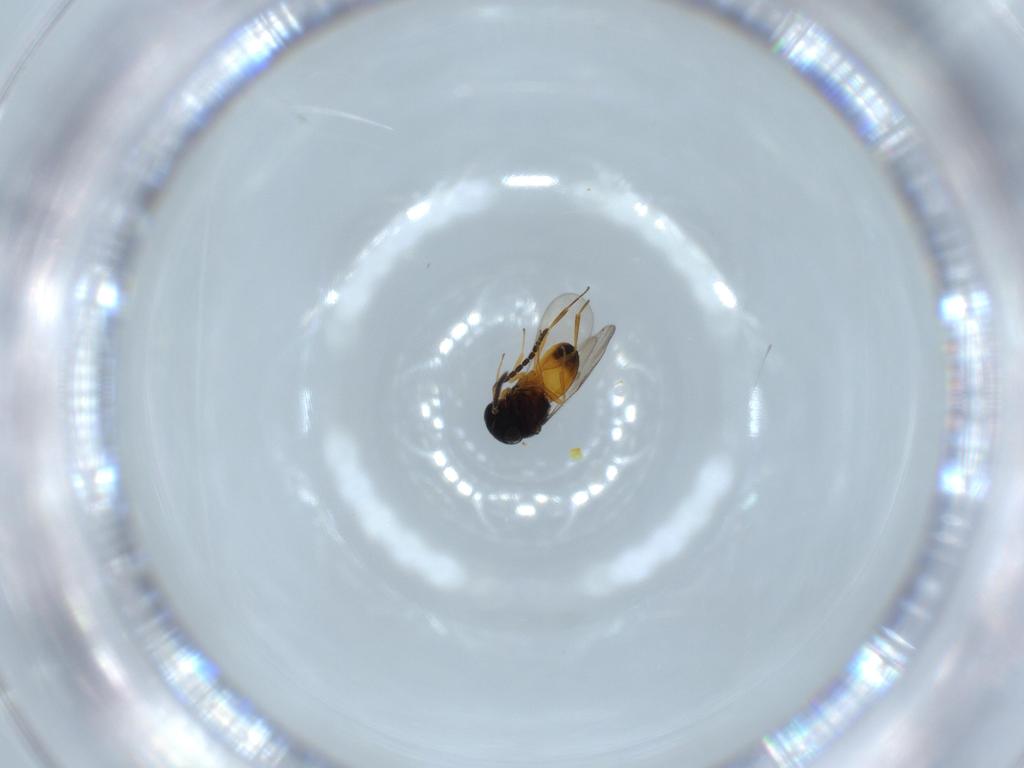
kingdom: Animalia
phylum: Arthropoda
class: Insecta
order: Hymenoptera
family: Scelionidae
